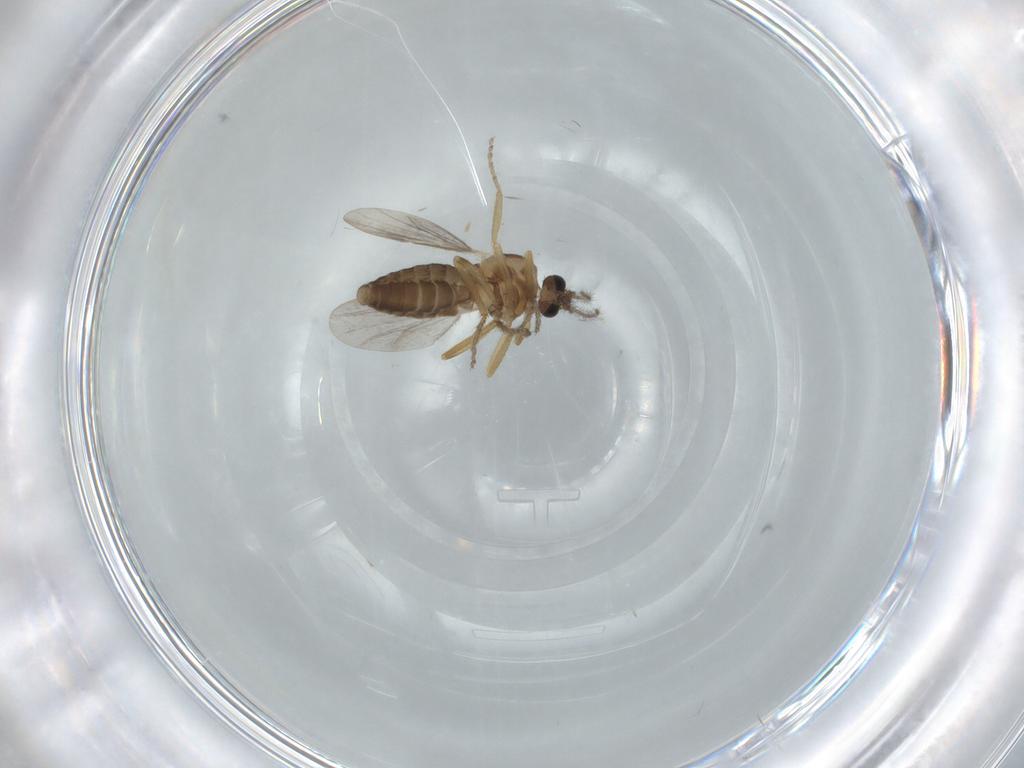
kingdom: Animalia
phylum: Arthropoda
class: Insecta
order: Diptera
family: Ceratopogonidae
